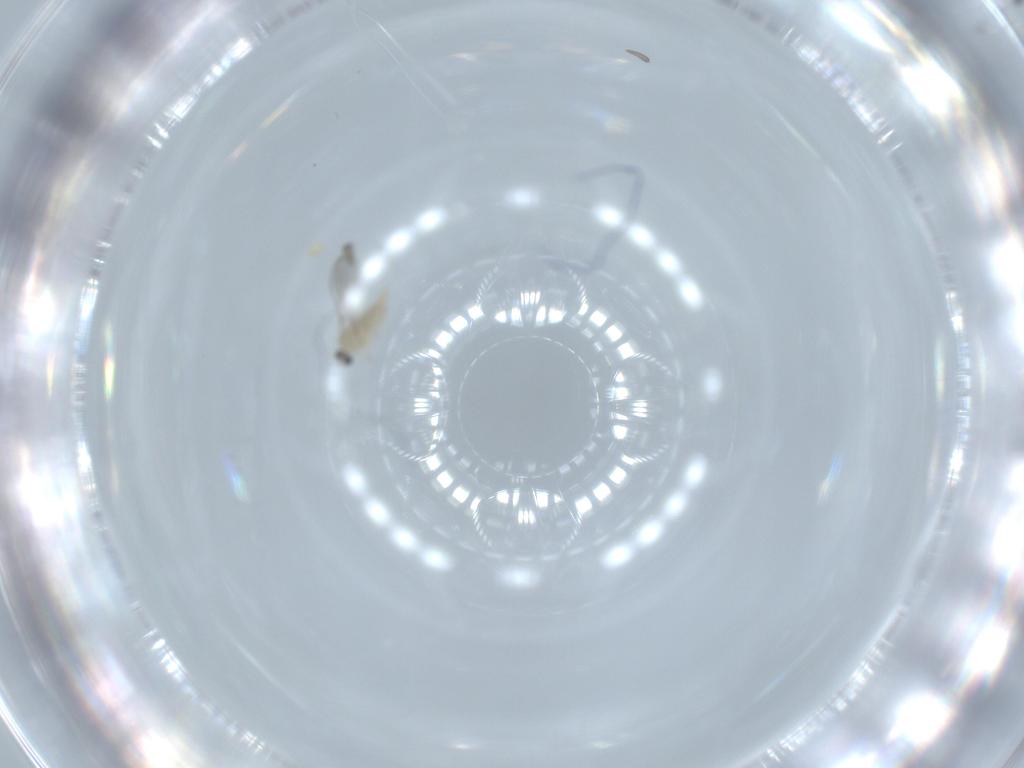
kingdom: Animalia
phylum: Arthropoda
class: Insecta
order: Diptera
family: Cecidomyiidae
